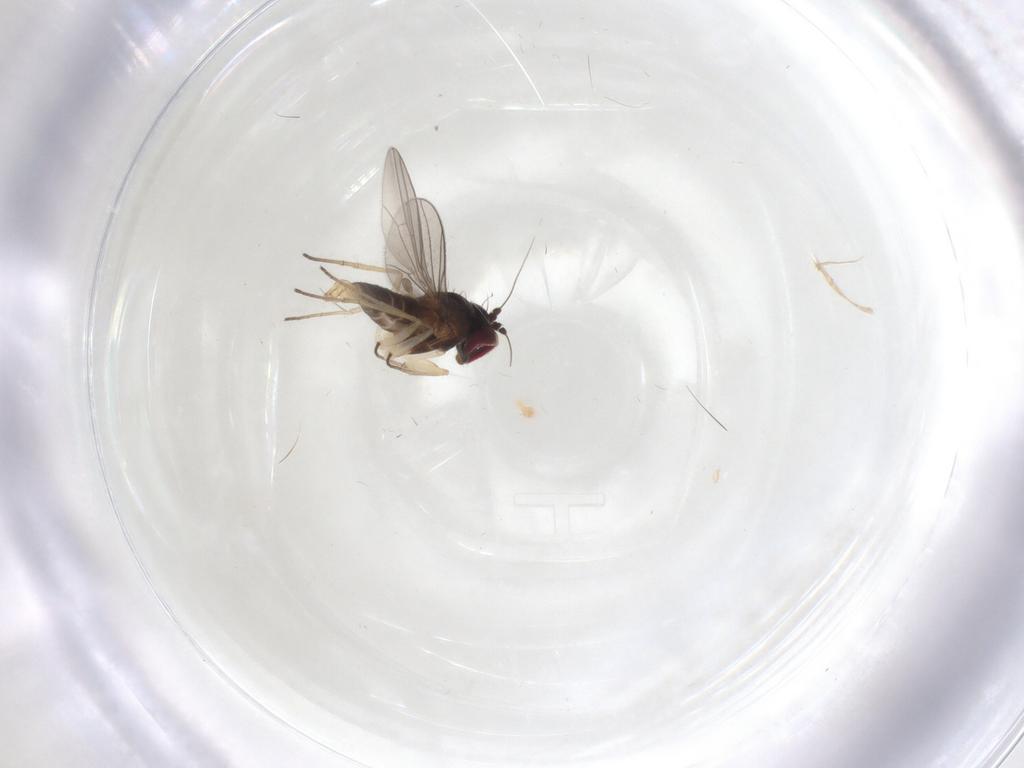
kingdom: Animalia
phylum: Arthropoda
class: Insecta
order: Diptera
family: Dolichopodidae
